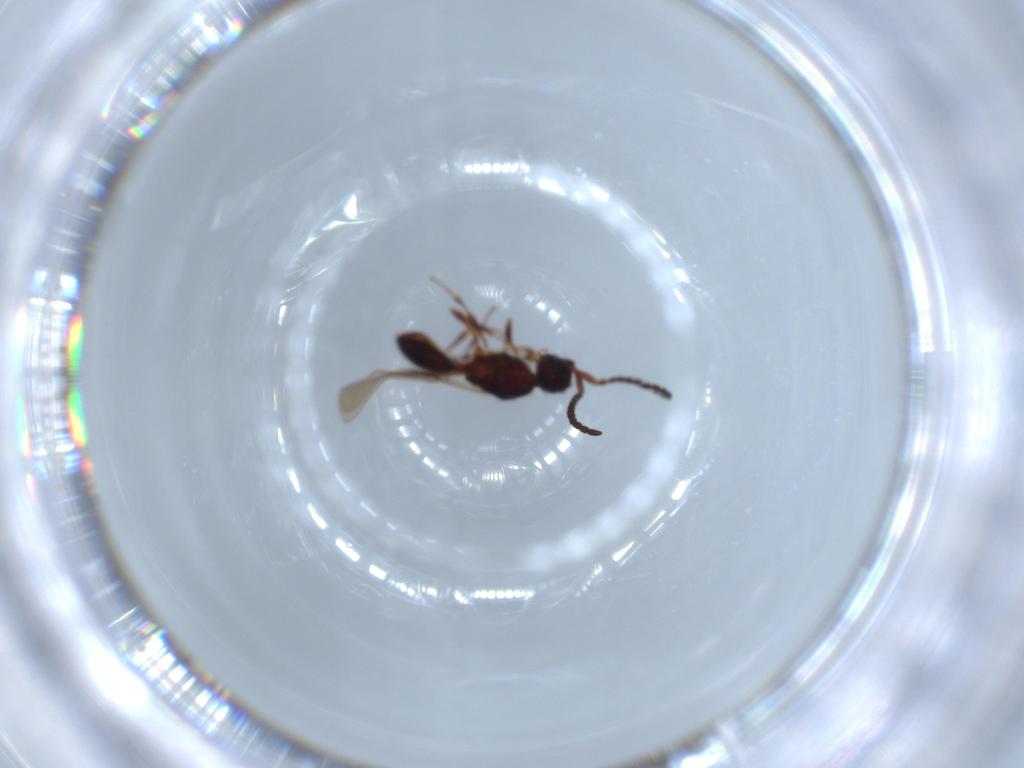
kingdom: Animalia
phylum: Arthropoda
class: Insecta
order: Hymenoptera
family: Diapriidae
